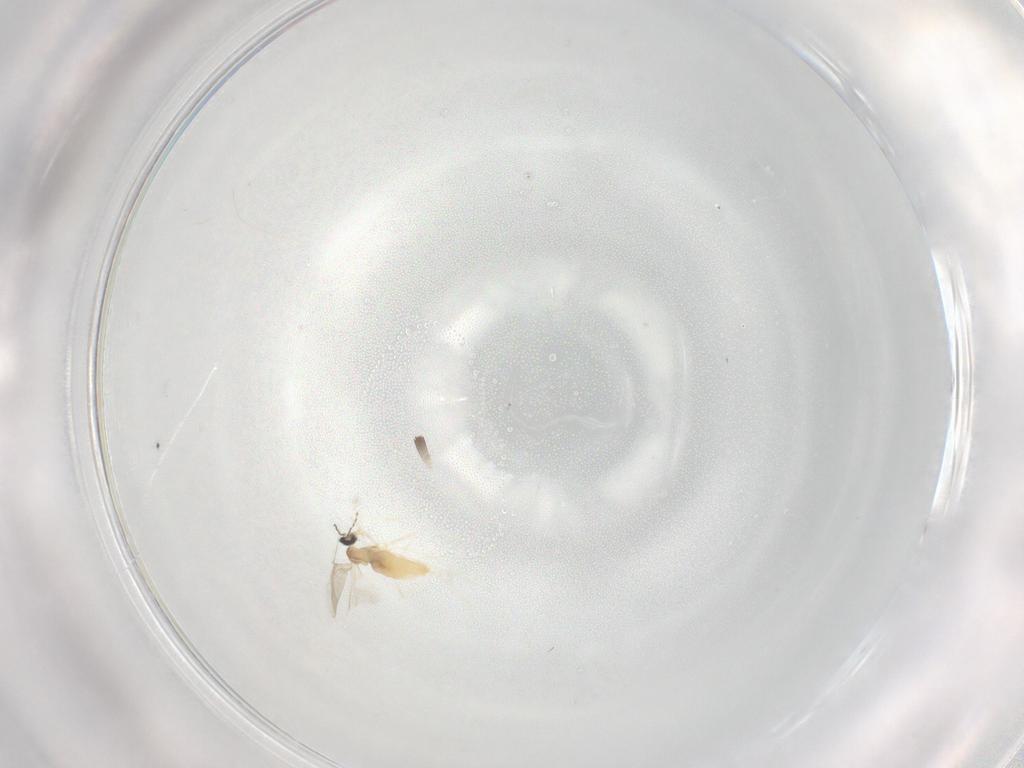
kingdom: Animalia
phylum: Arthropoda
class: Insecta
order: Diptera
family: Cecidomyiidae
